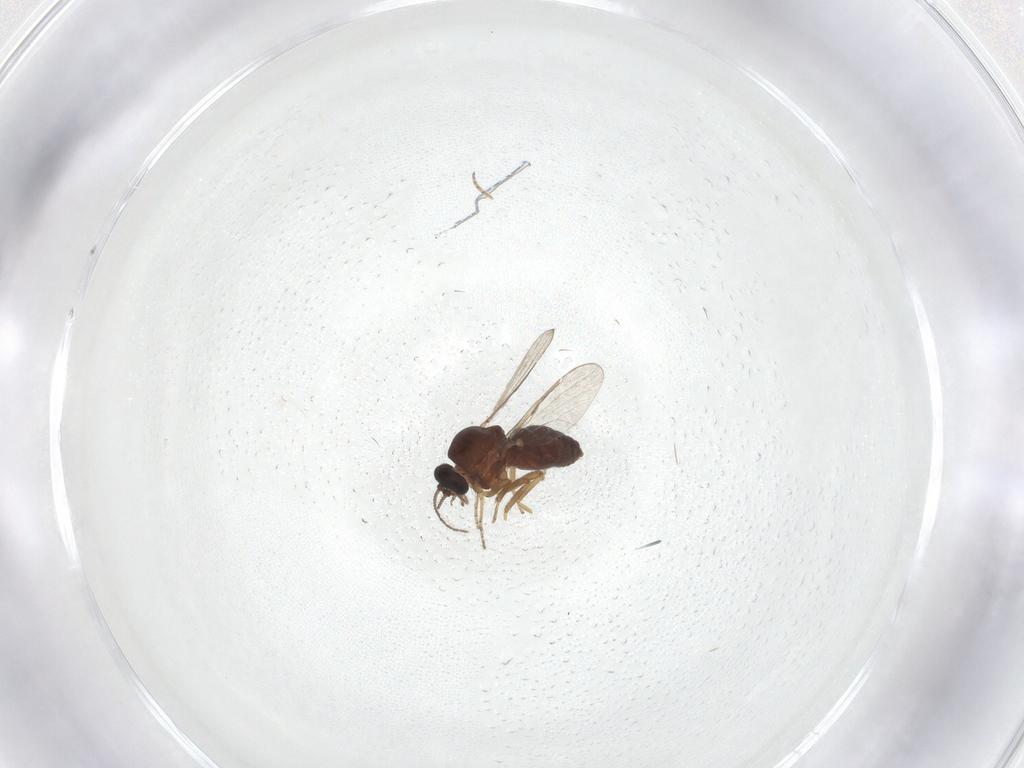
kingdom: Animalia
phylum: Arthropoda
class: Insecta
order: Diptera
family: Ceratopogonidae
